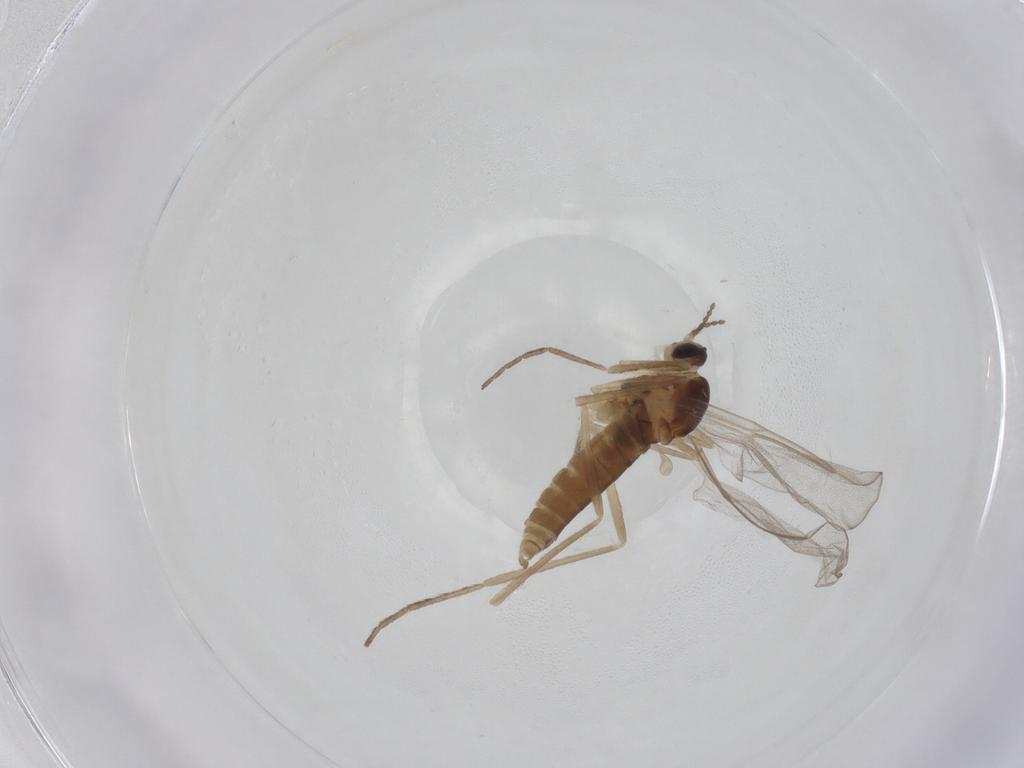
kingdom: Animalia
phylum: Arthropoda
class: Insecta
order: Diptera
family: Cecidomyiidae
